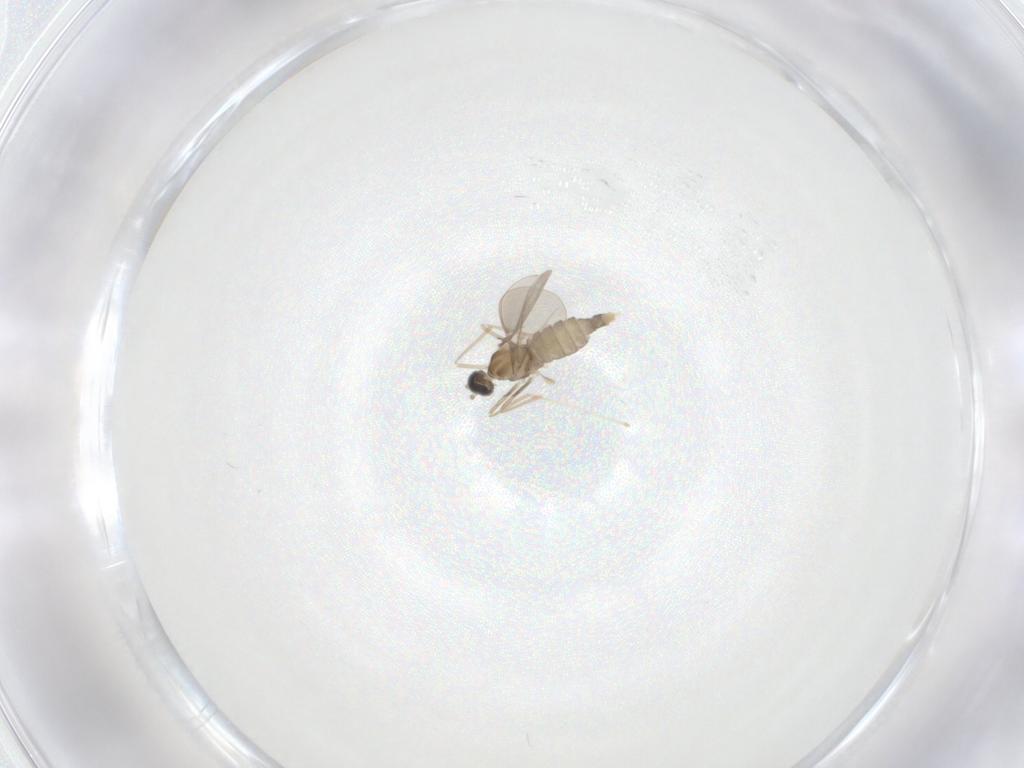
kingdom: Animalia
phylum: Arthropoda
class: Insecta
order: Diptera
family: Cecidomyiidae
